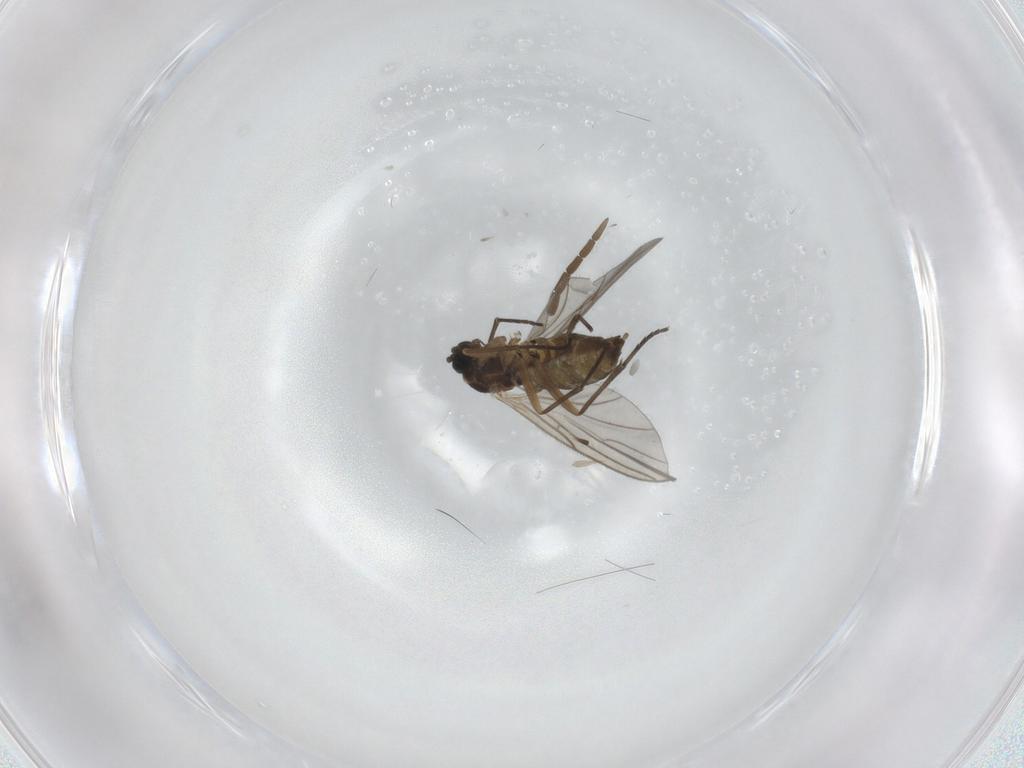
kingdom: Animalia
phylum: Arthropoda
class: Insecta
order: Diptera
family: Sciaridae
